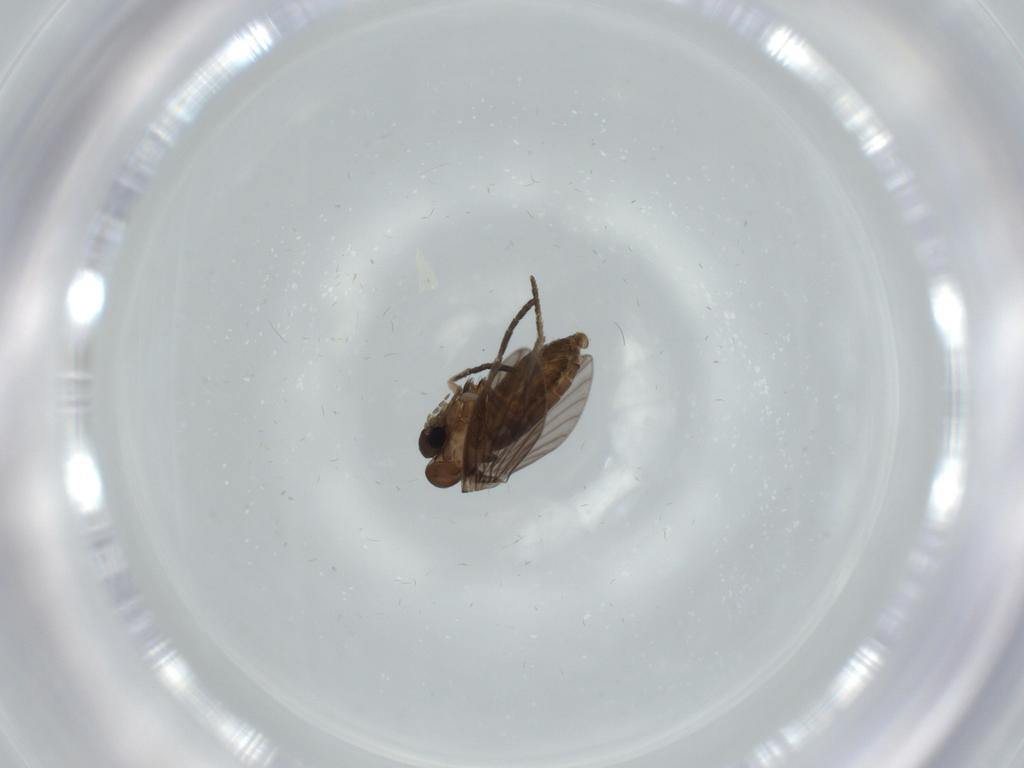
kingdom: Animalia
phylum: Arthropoda
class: Insecta
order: Diptera
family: Psychodidae
